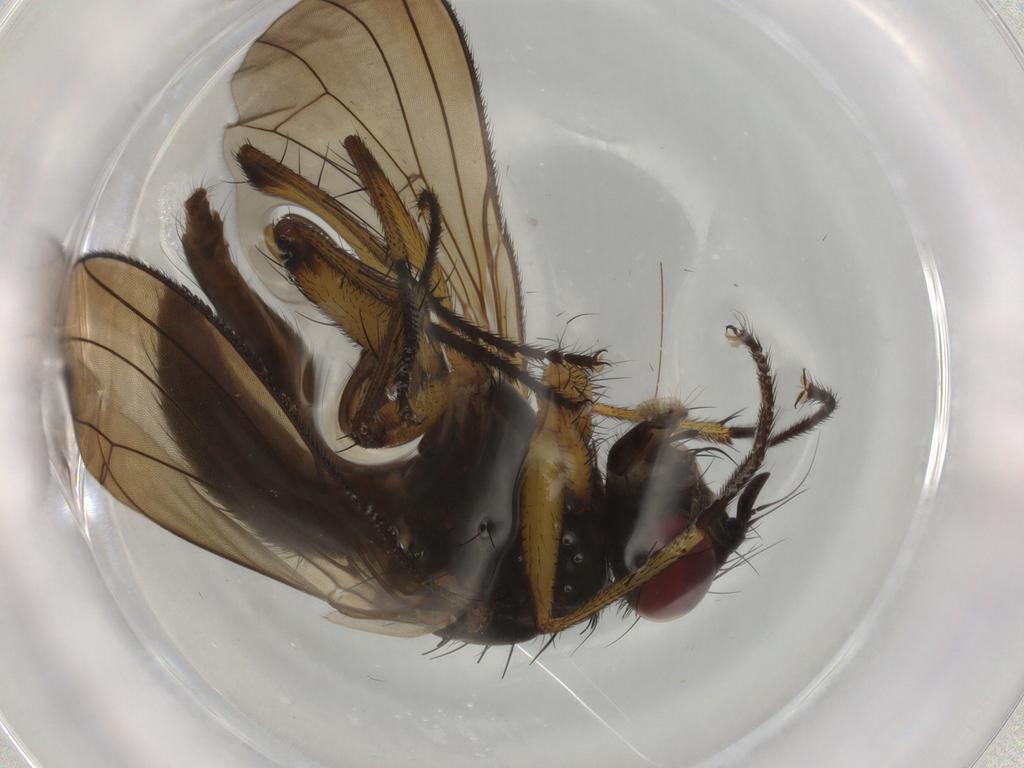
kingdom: Animalia
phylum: Arthropoda
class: Insecta
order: Diptera
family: Muscidae
